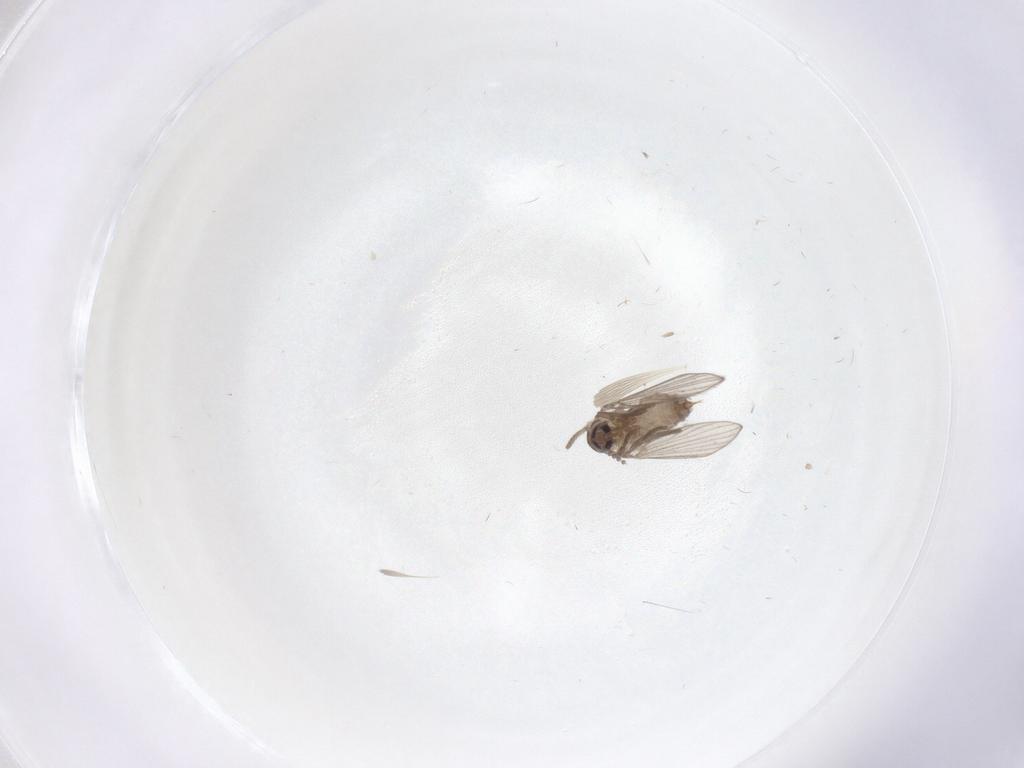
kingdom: Animalia
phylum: Arthropoda
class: Insecta
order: Diptera
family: Psychodidae
